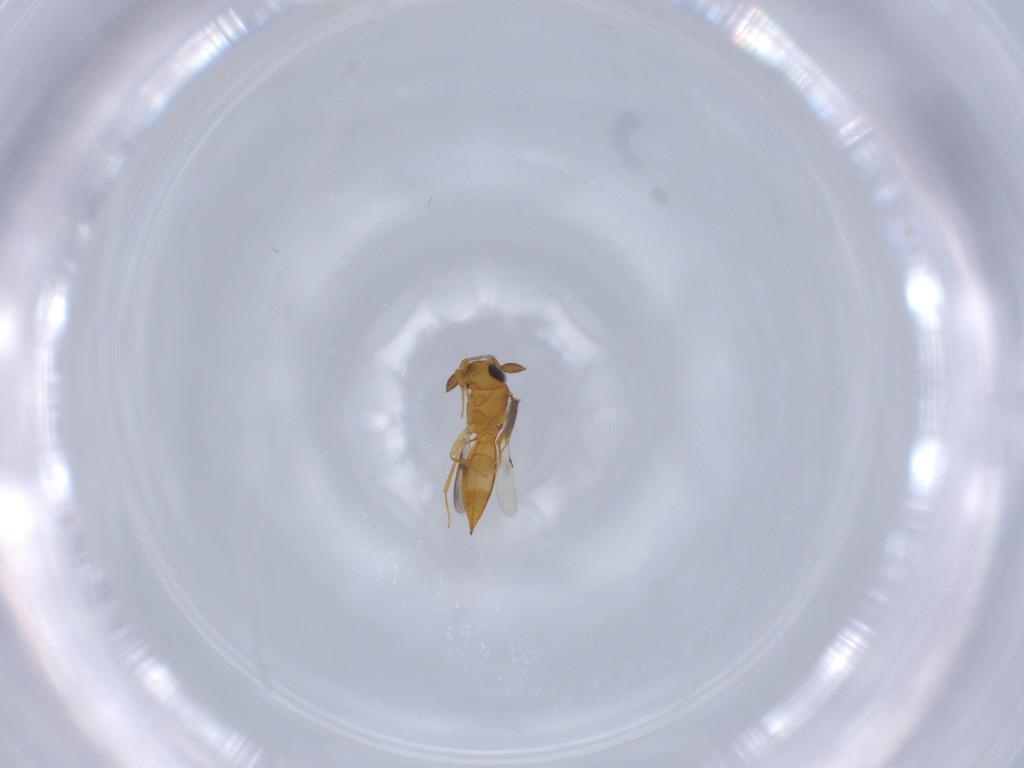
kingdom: Animalia
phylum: Arthropoda
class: Insecta
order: Hymenoptera
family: Scelionidae
